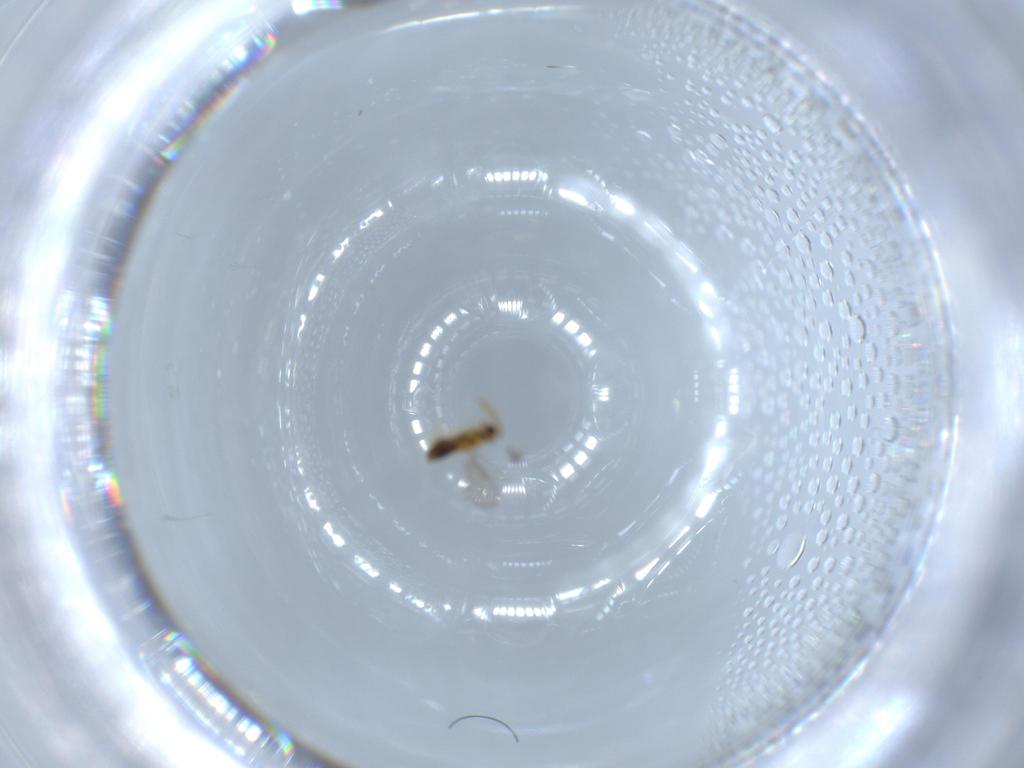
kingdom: Animalia
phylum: Arthropoda
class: Insecta
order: Hymenoptera
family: Aphelinidae
